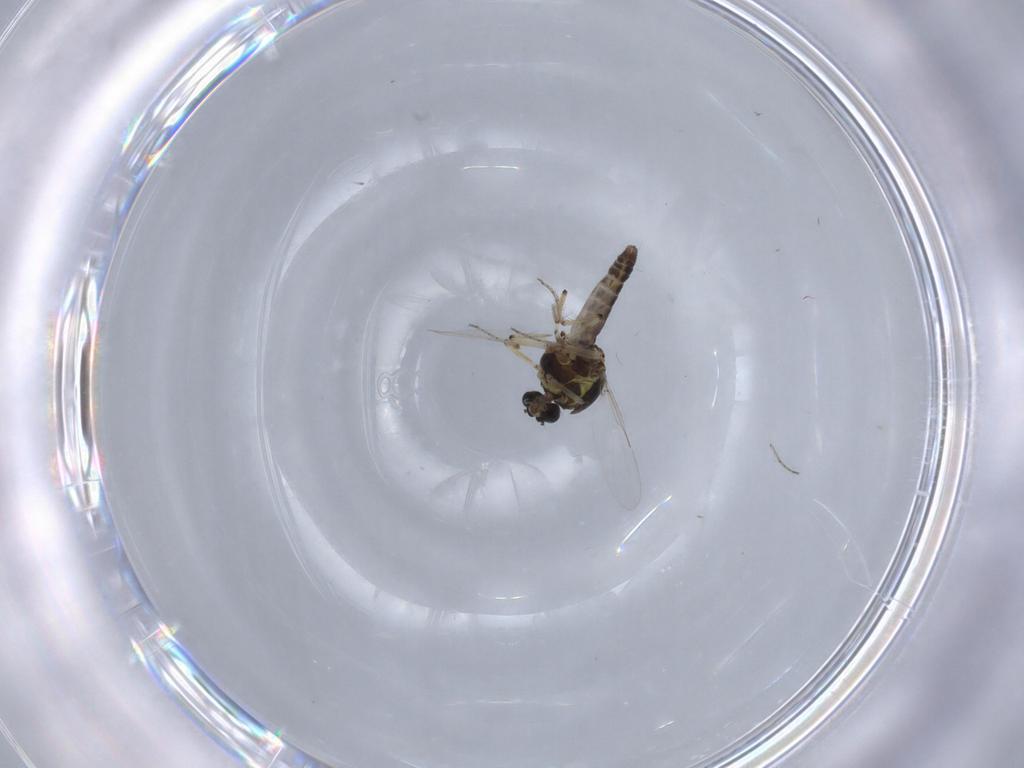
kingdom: Animalia
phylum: Arthropoda
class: Insecta
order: Diptera
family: Ceratopogonidae
